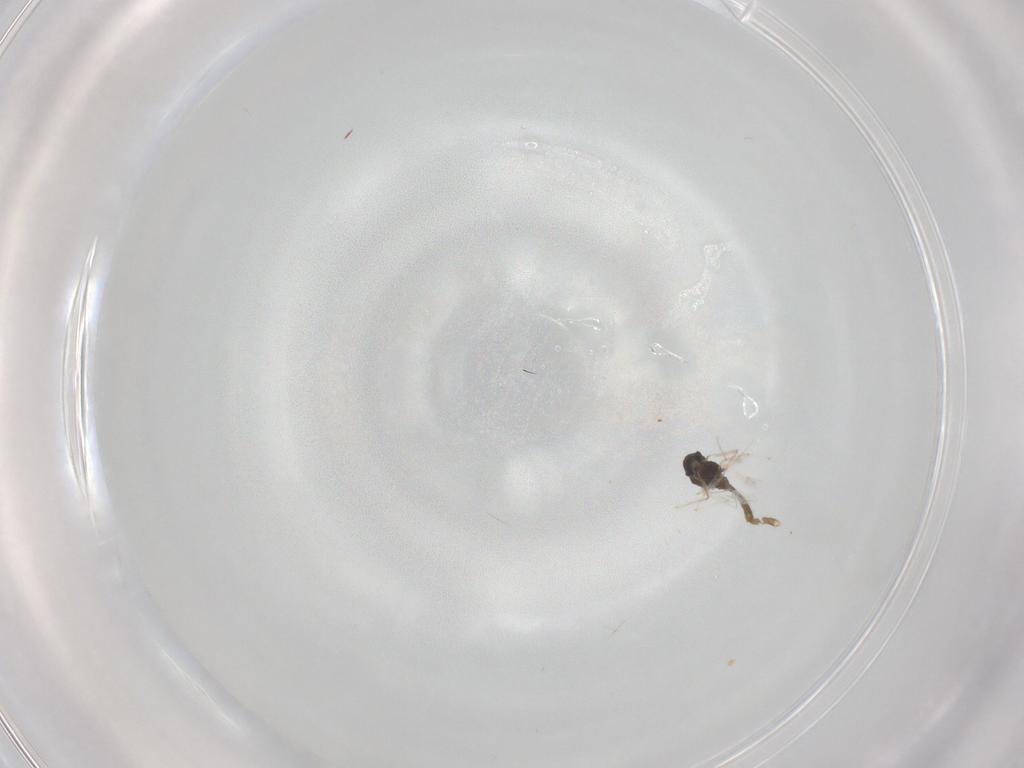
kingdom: Animalia
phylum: Arthropoda
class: Insecta
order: Diptera
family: Chironomidae
